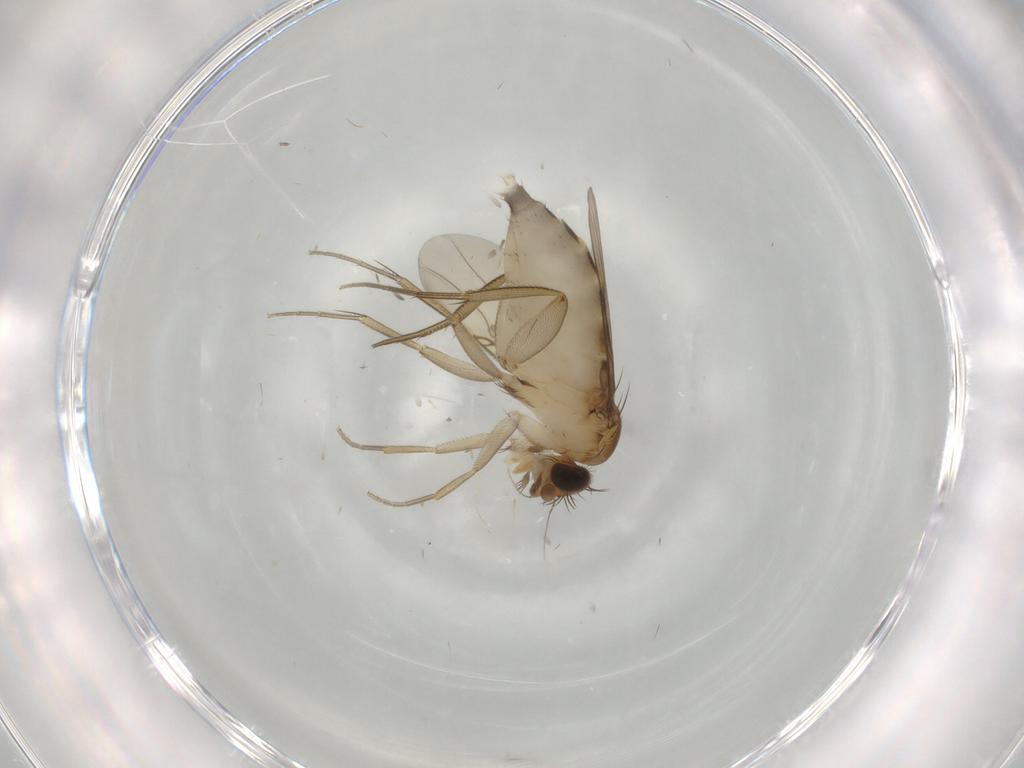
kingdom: Animalia
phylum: Arthropoda
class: Insecta
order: Diptera
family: Phoridae
